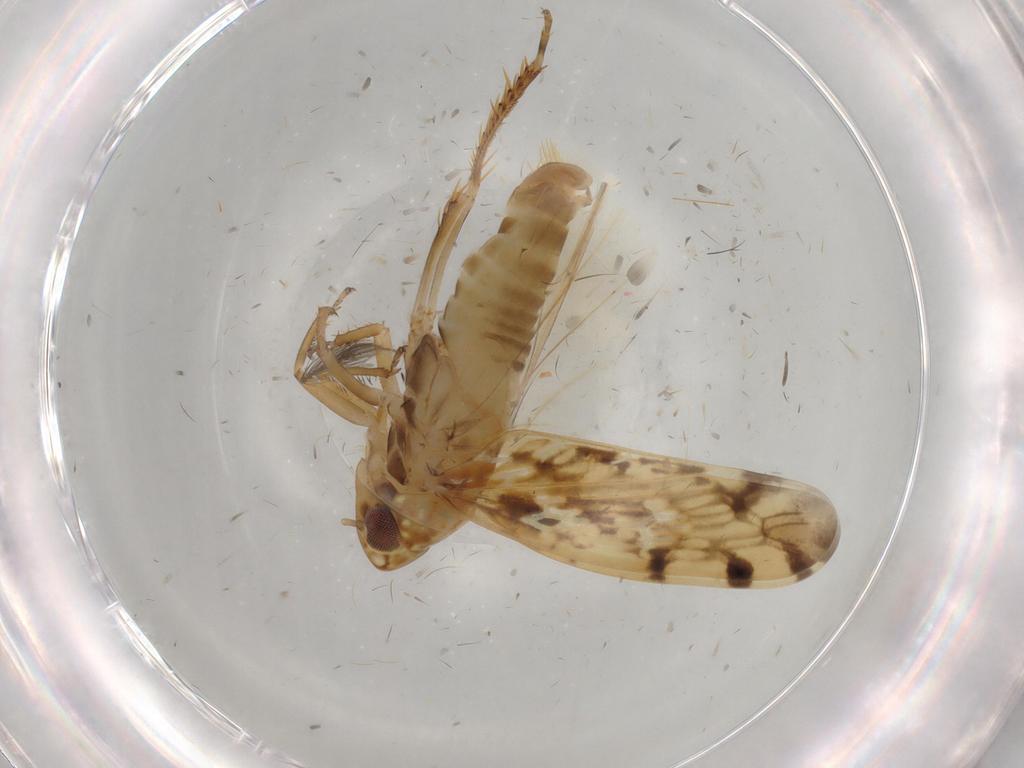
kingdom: Animalia
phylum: Arthropoda
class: Insecta
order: Hemiptera
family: Cicadellidae
